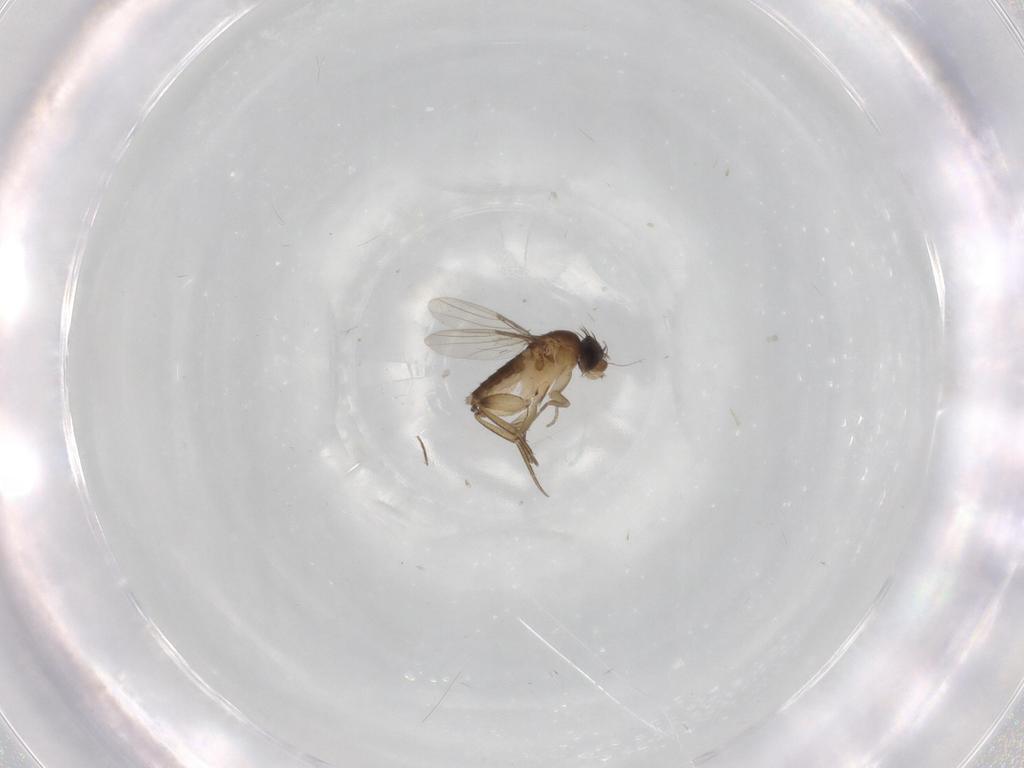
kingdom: Animalia
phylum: Arthropoda
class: Insecta
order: Diptera
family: Phoridae
